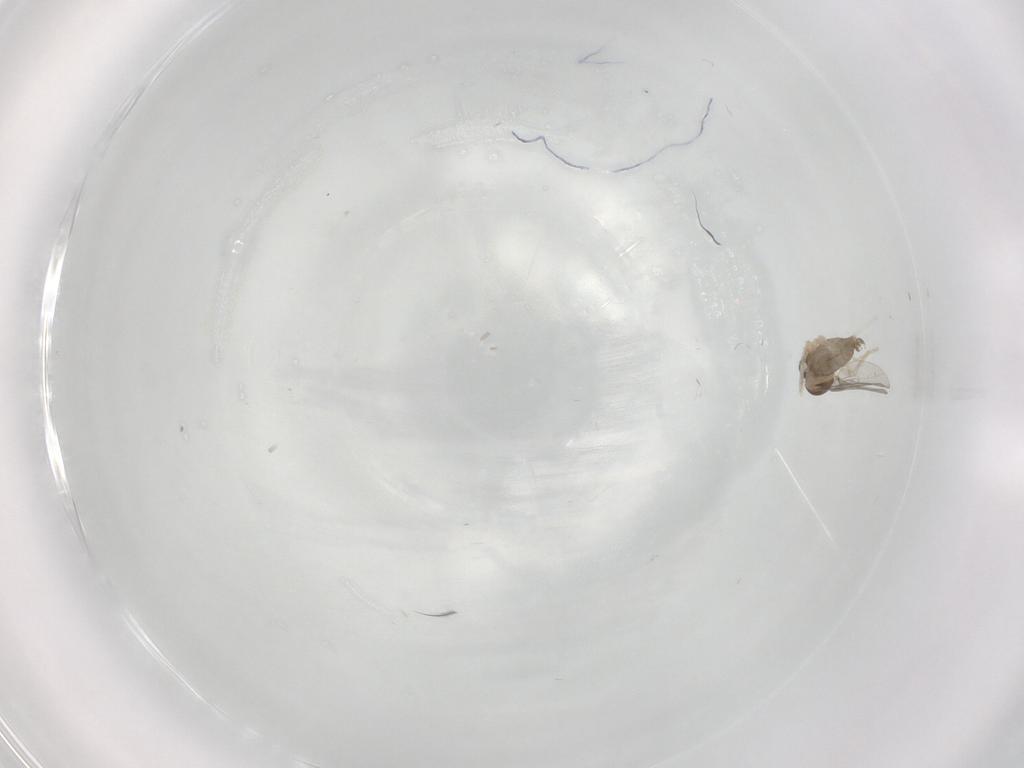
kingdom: Animalia
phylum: Arthropoda
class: Insecta
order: Diptera
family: Cecidomyiidae
